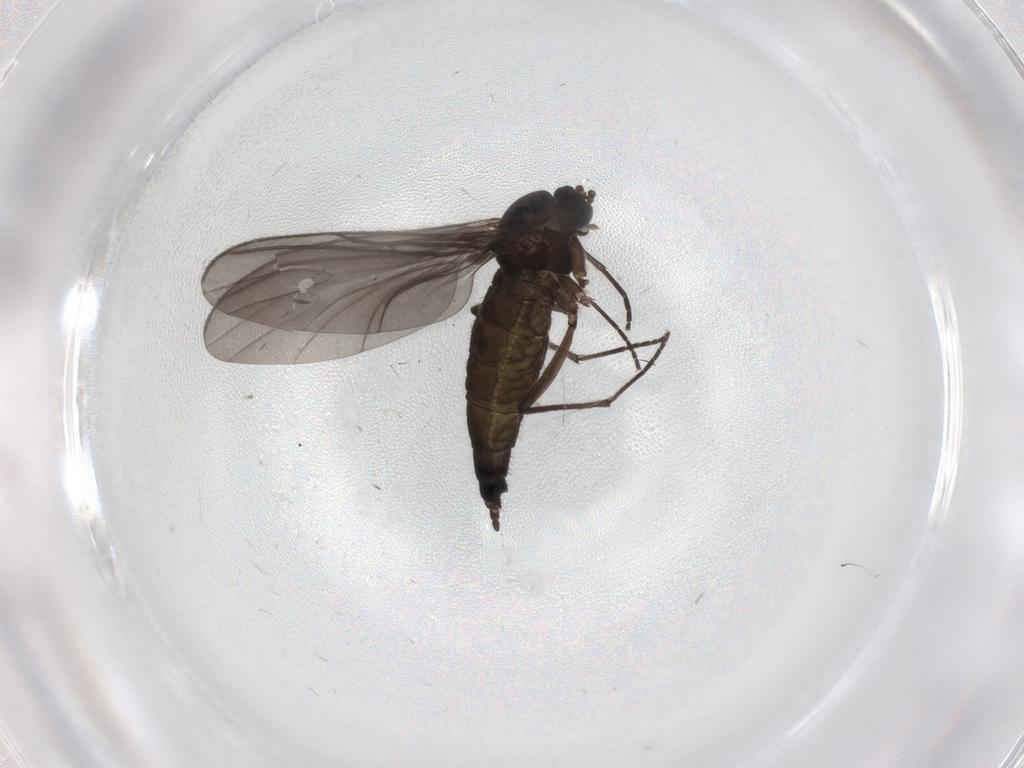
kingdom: Animalia
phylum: Arthropoda
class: Insecta
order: Diptera
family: Sciaridae
